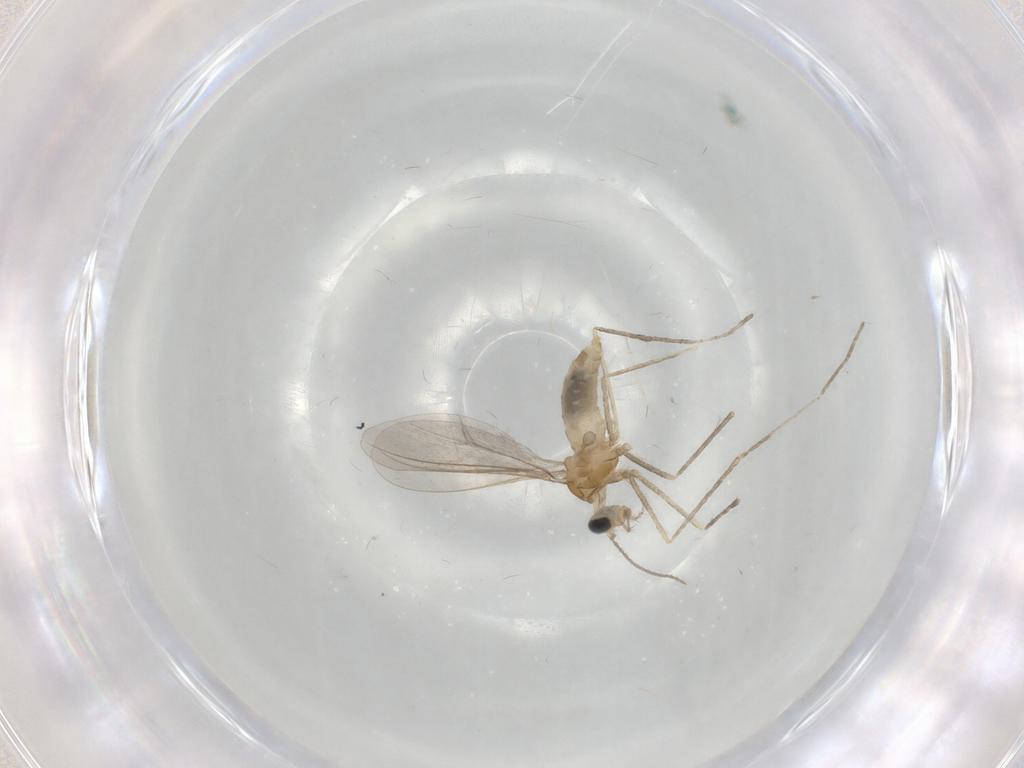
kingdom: Animalia
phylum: Arthropoda
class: Insecta
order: Diptera
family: Cecidomyiidae
